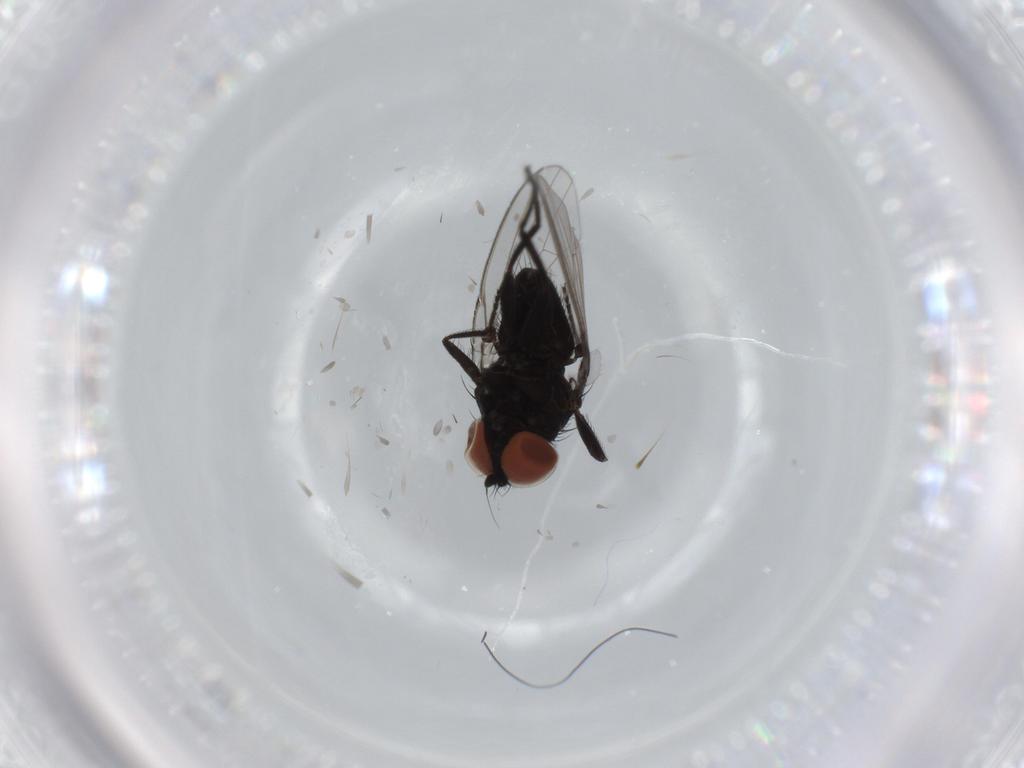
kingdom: Animalia
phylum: Arthropoda
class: Insecta
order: Diptera
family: Milichiidae
